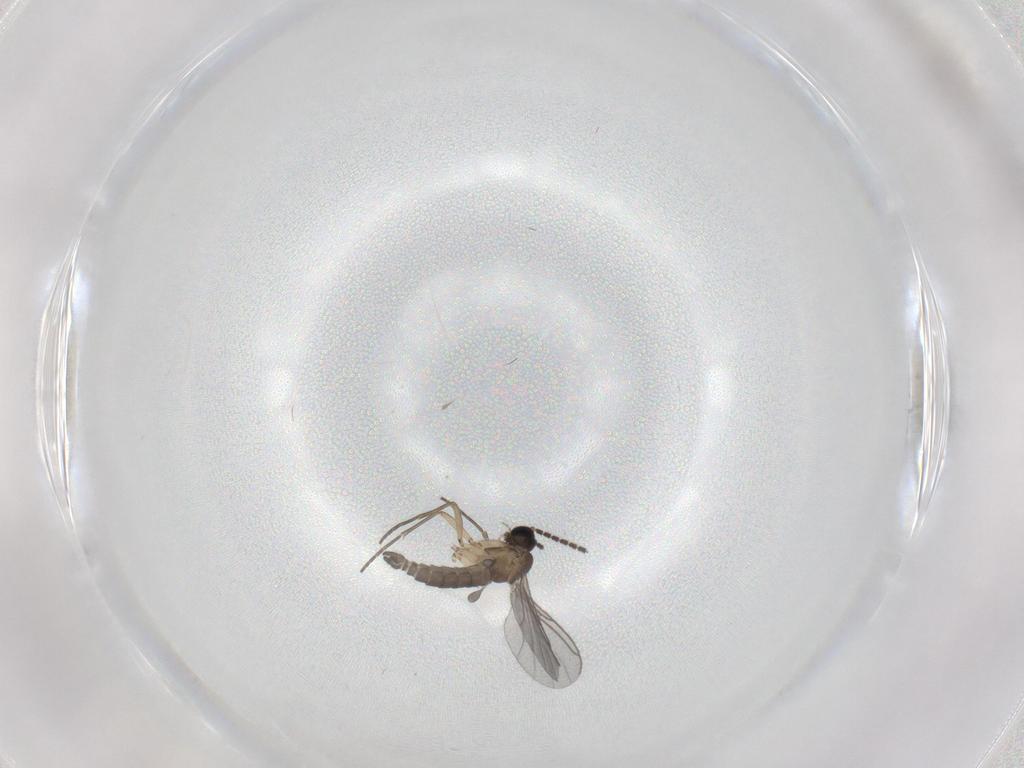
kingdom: Animalia
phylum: Arthropoda
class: Insecta
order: Diptera
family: Sciaridae
